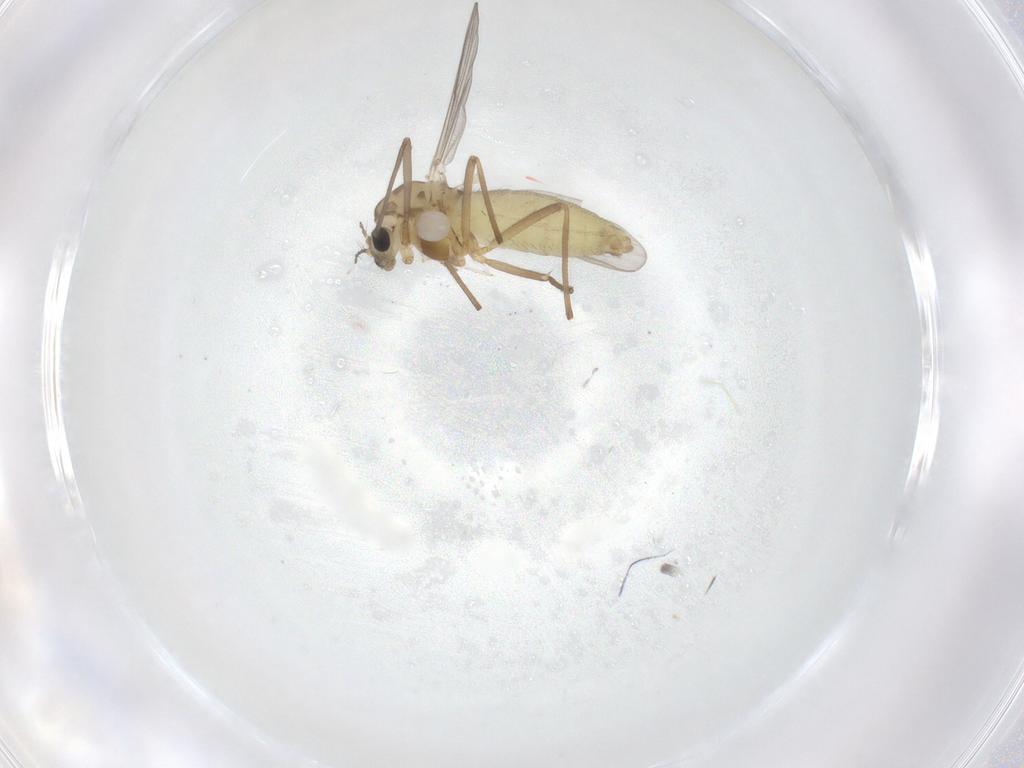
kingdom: Animalia
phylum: Arthropoda
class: Insecta
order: Diptera
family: Chironomidae
